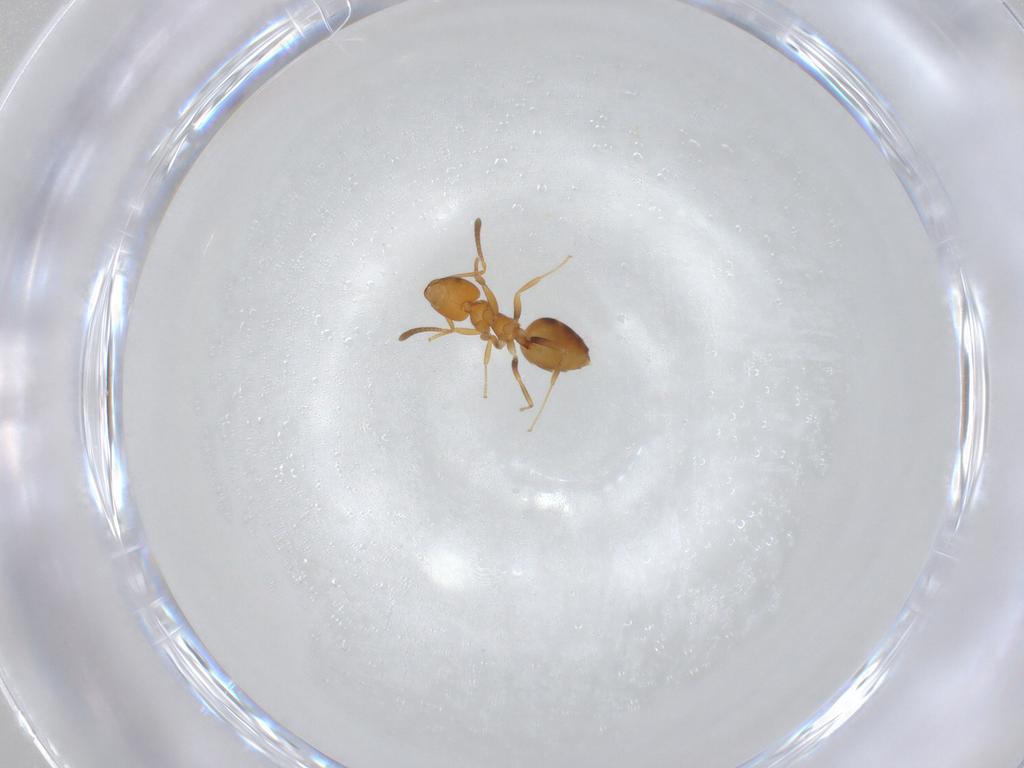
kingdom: Animalia
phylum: Arthropoda
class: Insecta
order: Hymenoptera
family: Formicidae
